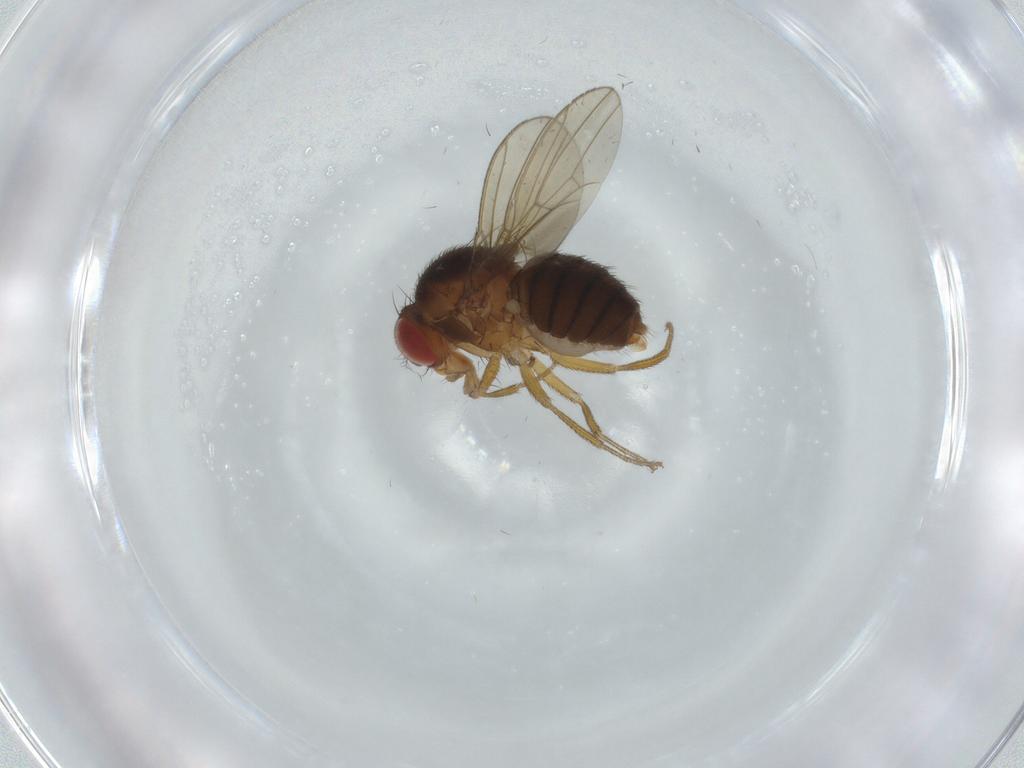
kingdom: Animalia
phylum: Arthropoda
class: Insecta
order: Diptera
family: Drosophilidae
